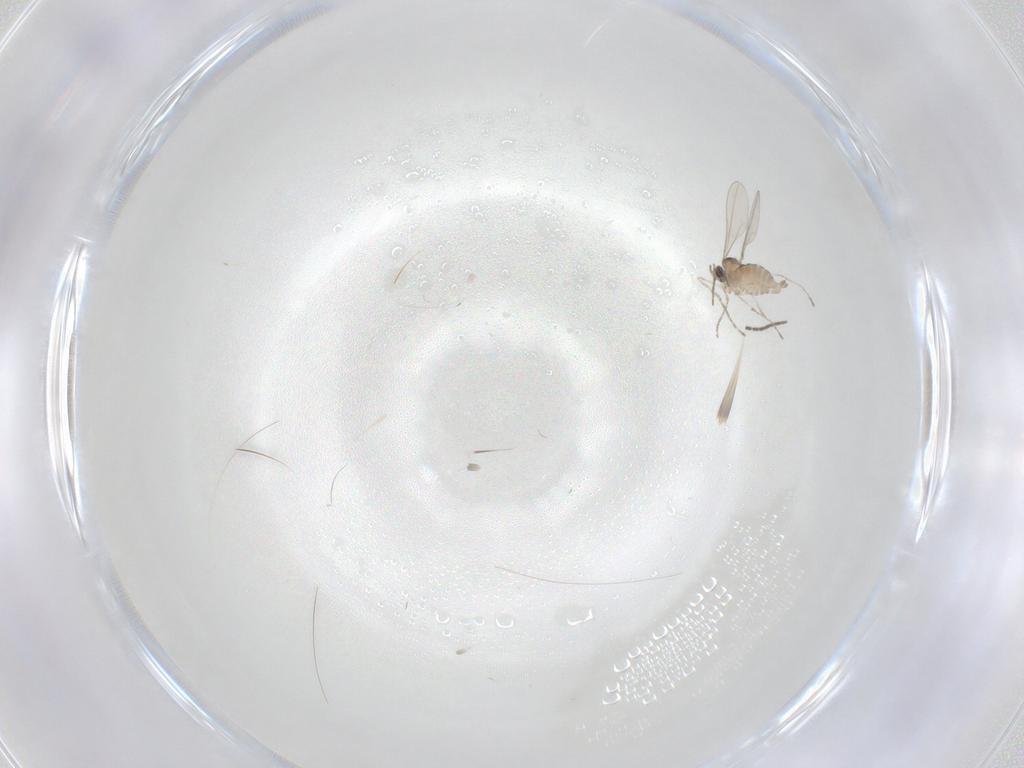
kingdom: Animalia
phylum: Arthropoda
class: Insecta
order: Diptera
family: Sciaridae
